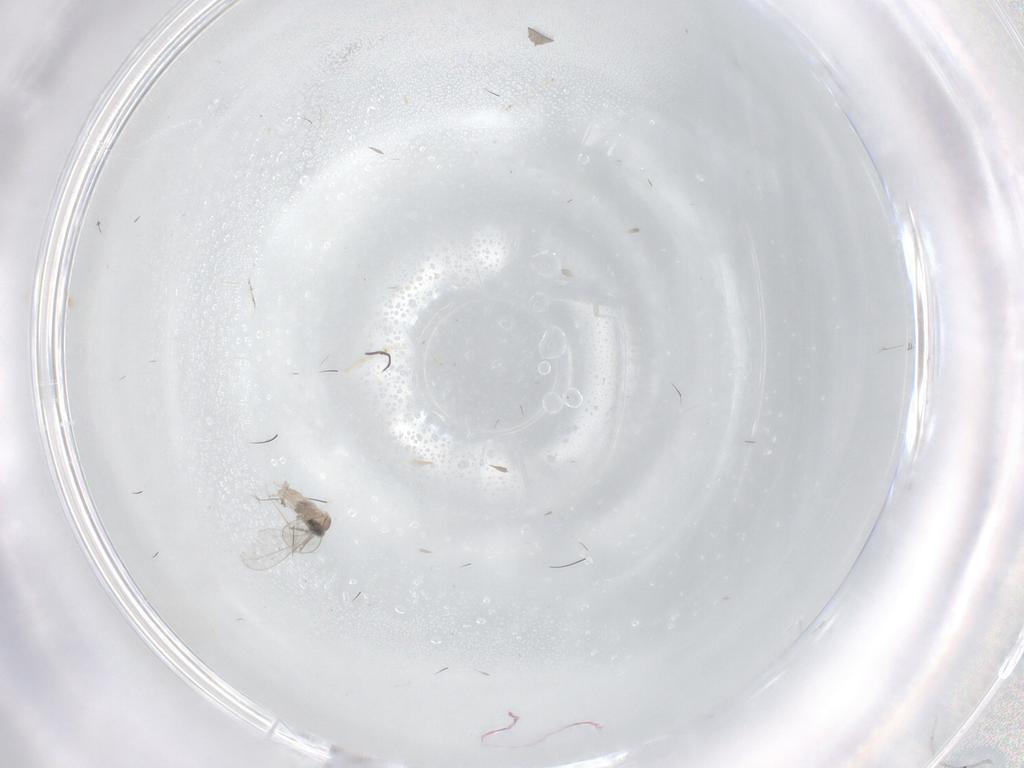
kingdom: Animalia
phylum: Arthropoda
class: Insecta
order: Diptera
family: Cecidomyiidae
